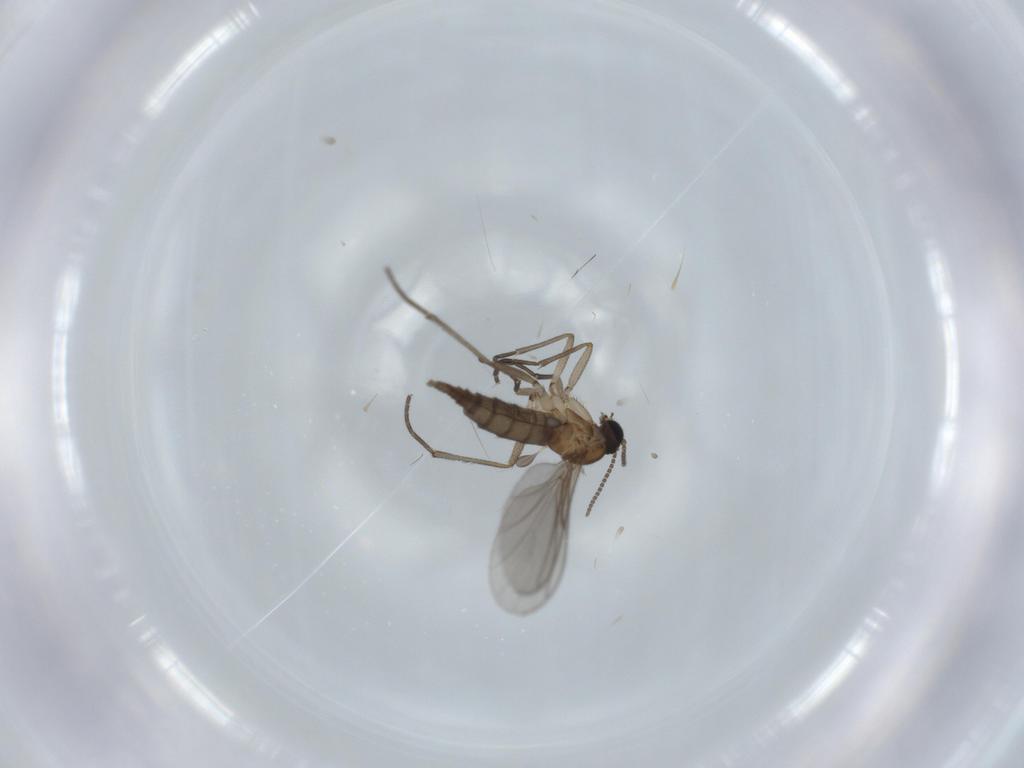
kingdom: Animalia
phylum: Arthropoda
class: Insecta
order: Diptera
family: Sciaridae
